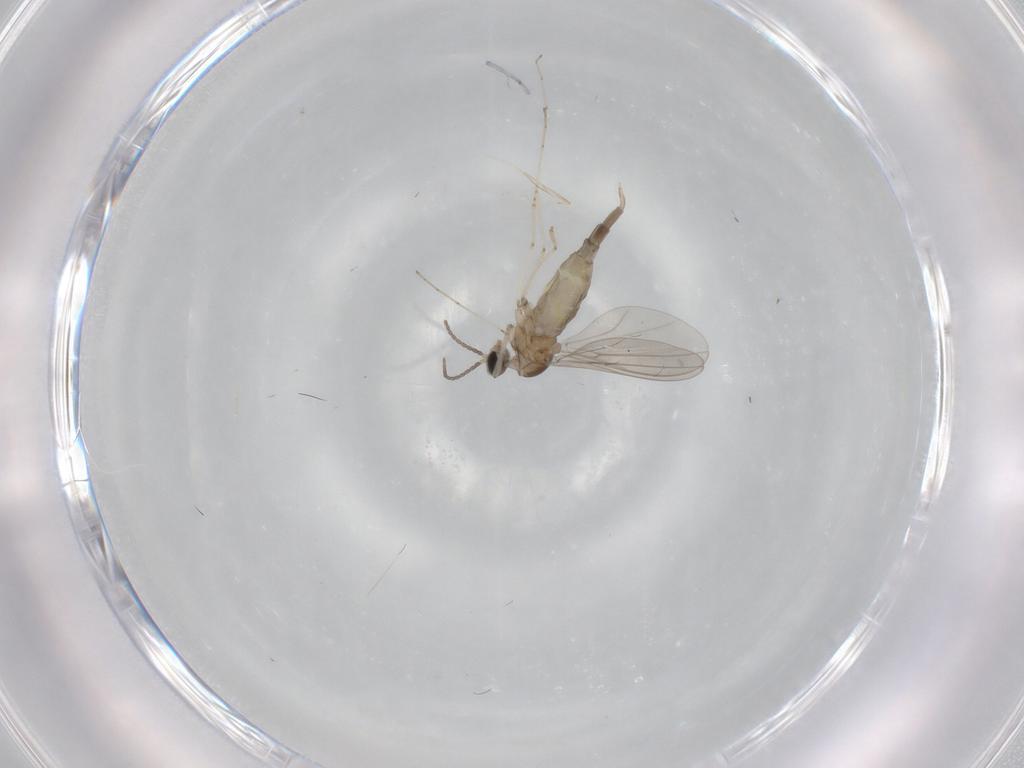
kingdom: Animalia
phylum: Arthropoda
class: Insecta
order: Diptera
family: Cecidomyiidae
